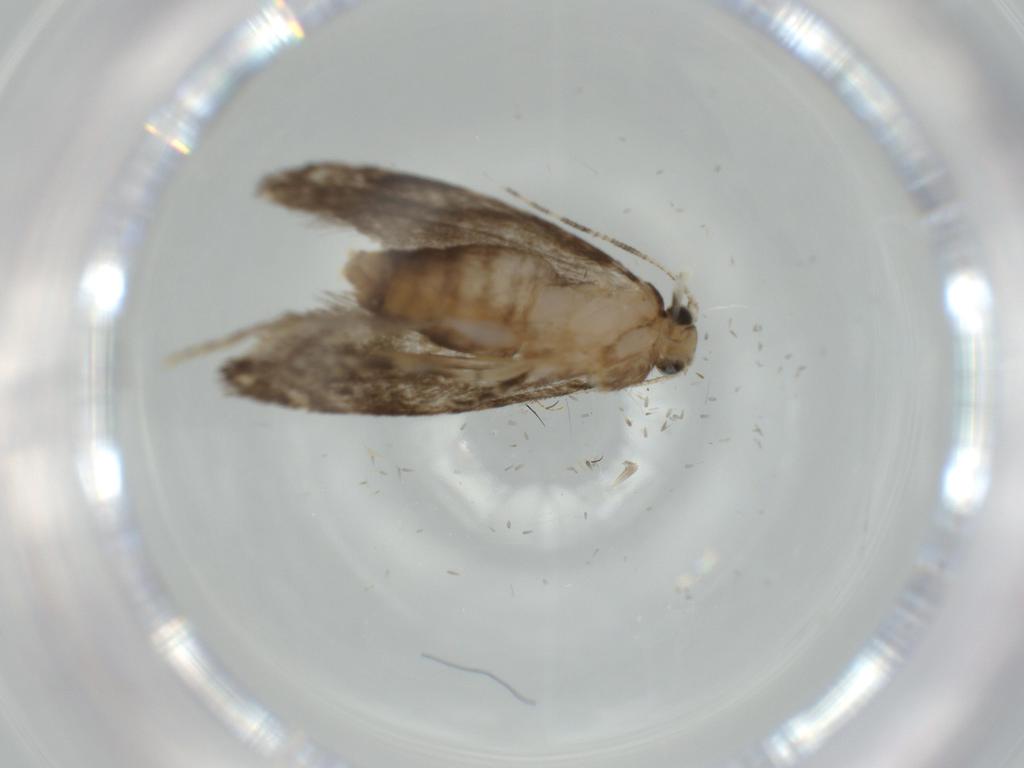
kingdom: Animalia
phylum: Arthropoda
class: Insecta
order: Lepidoptera
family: Tineidae
